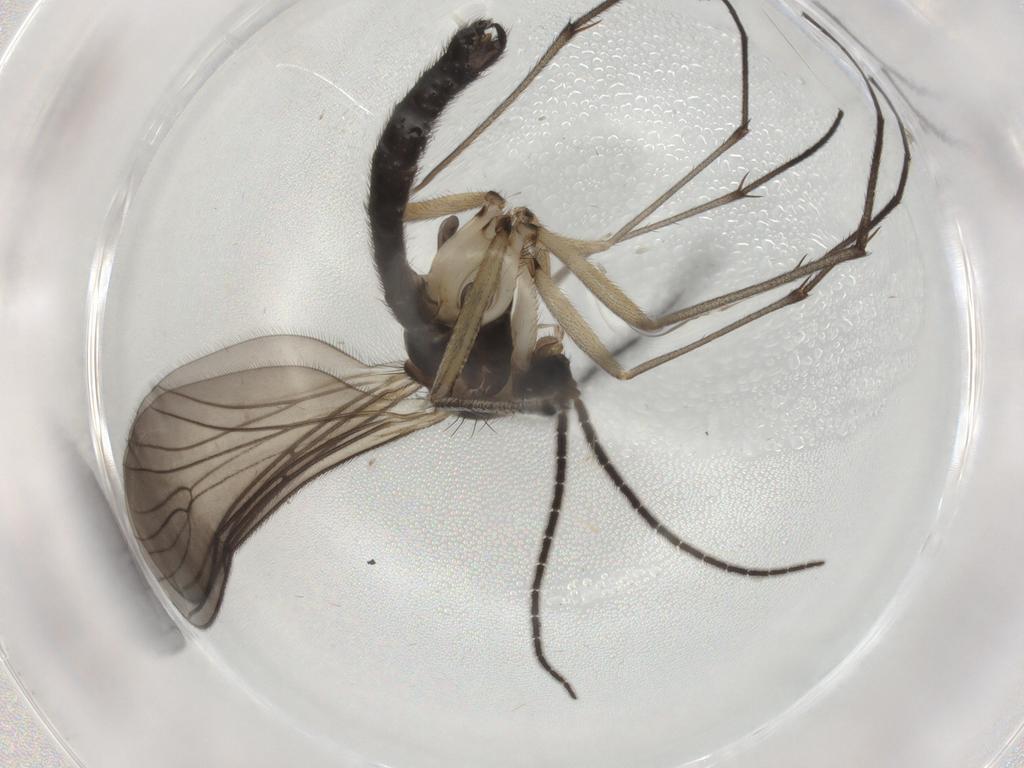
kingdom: Animalia
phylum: Arthropoda
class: Insecta
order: Diptera
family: Sciaridae
